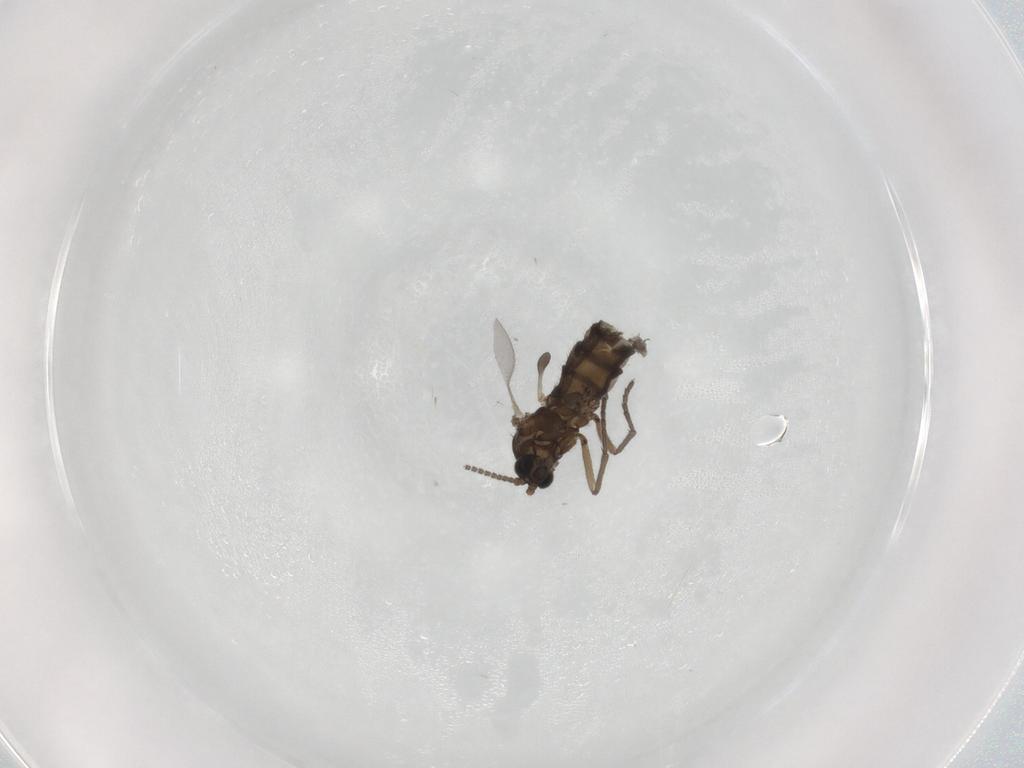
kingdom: Animalia
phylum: Arthropoda
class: Insecta
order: Diptera
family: Sciaridae
